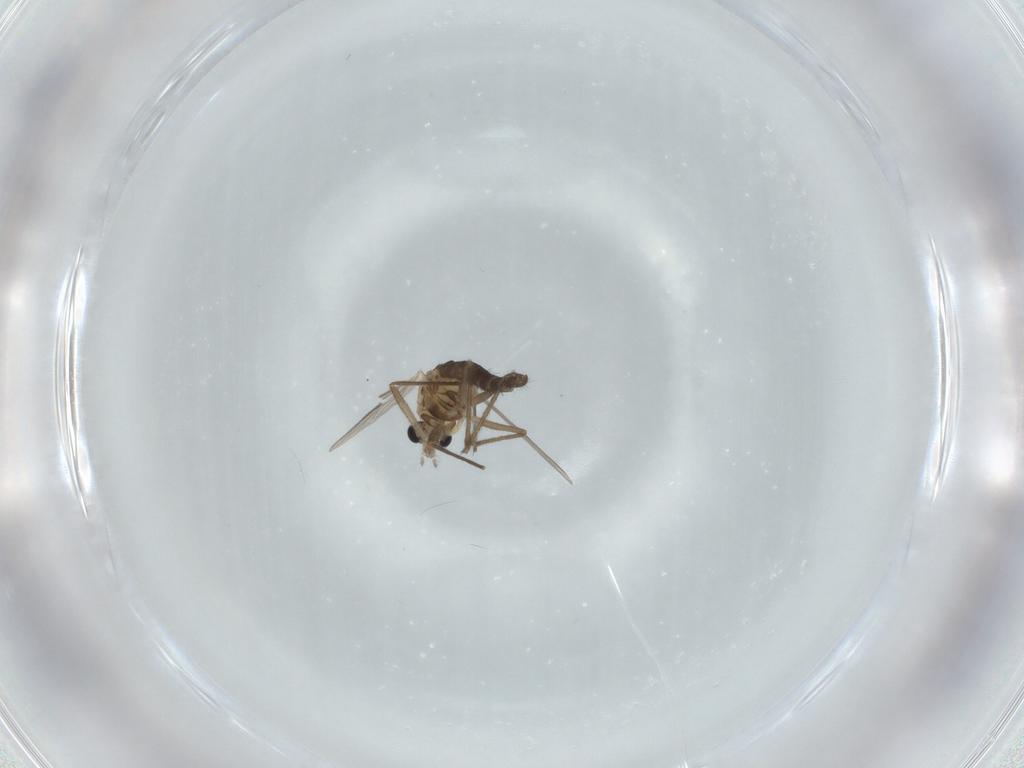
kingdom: Animalia
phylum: Arthropoda
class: Insecta
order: Diptera
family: Chironomidae
